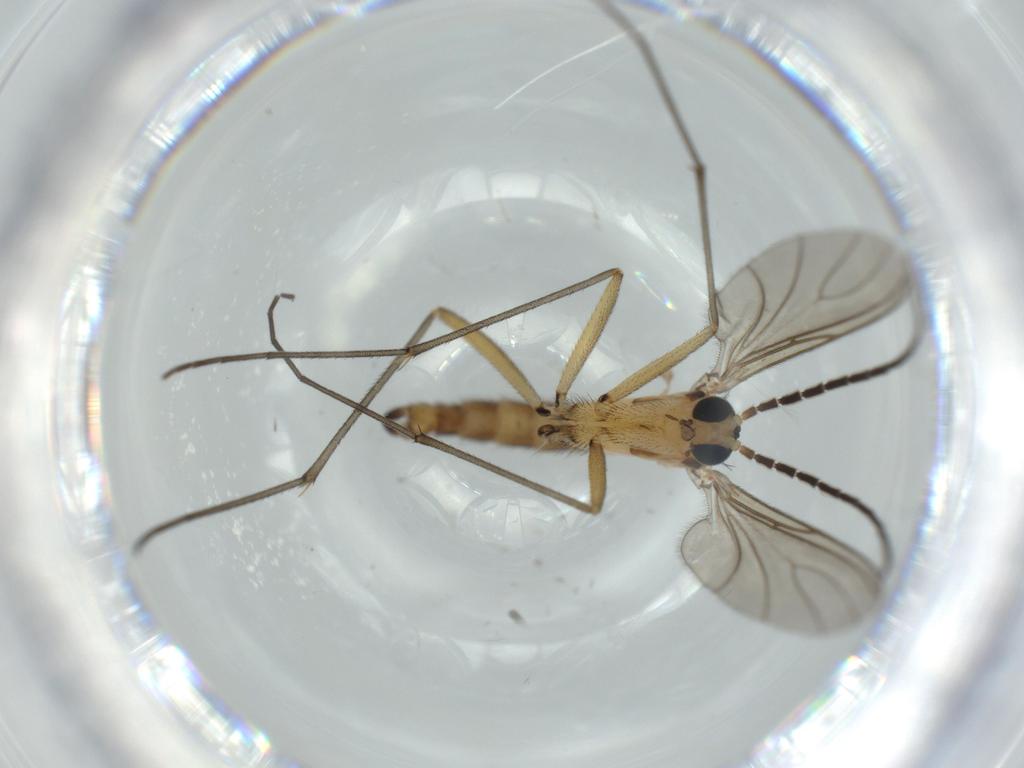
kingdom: Animalia
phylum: Arthropoda
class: Insecta
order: Diptera
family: Sciaridae
